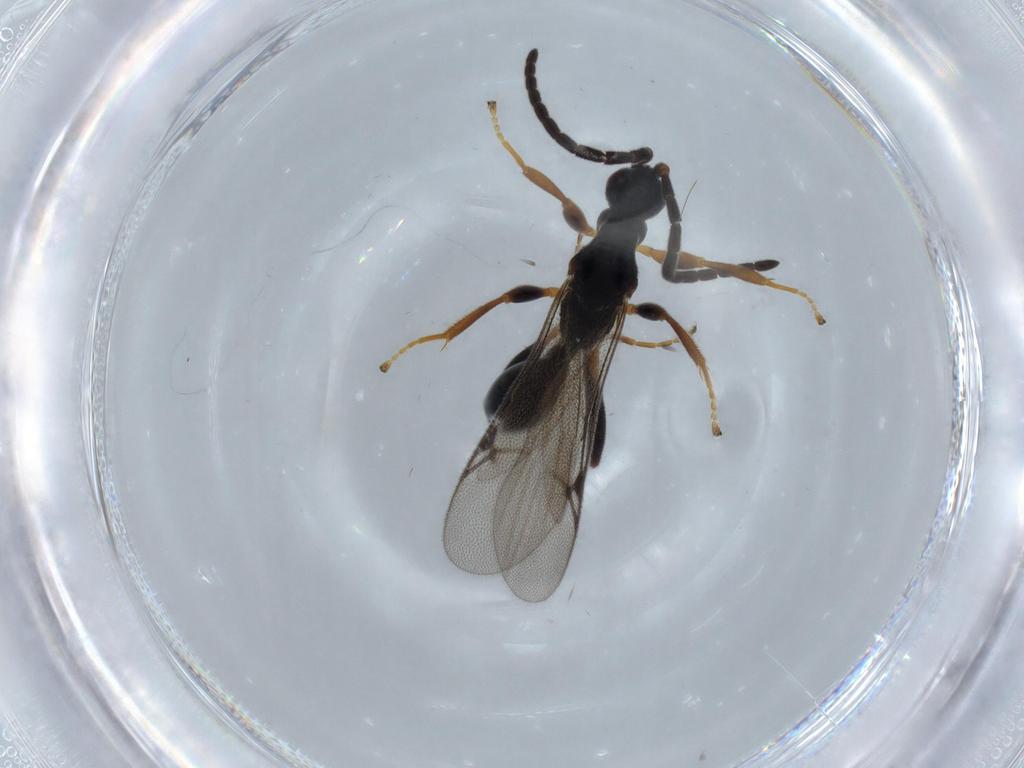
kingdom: Animalia
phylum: Arthropoda
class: Insecta
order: Hymenoptera
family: Proctotrupidae
